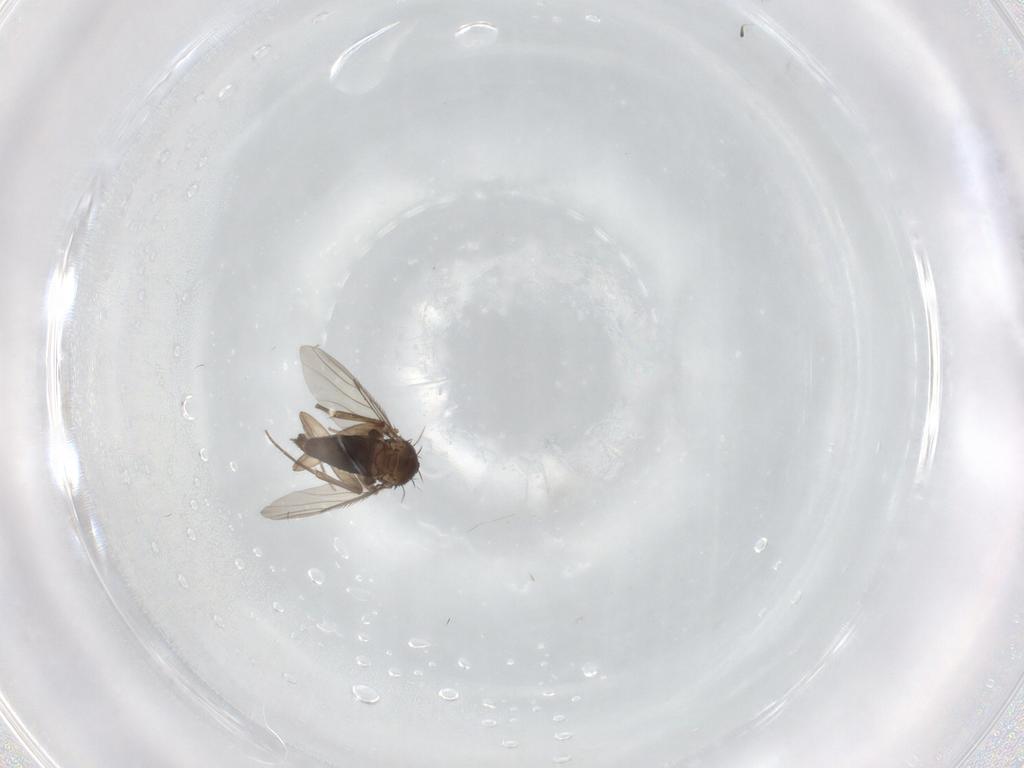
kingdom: Animalia
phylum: Arthropoda
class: Insecta
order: Diptera
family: Phoridae
